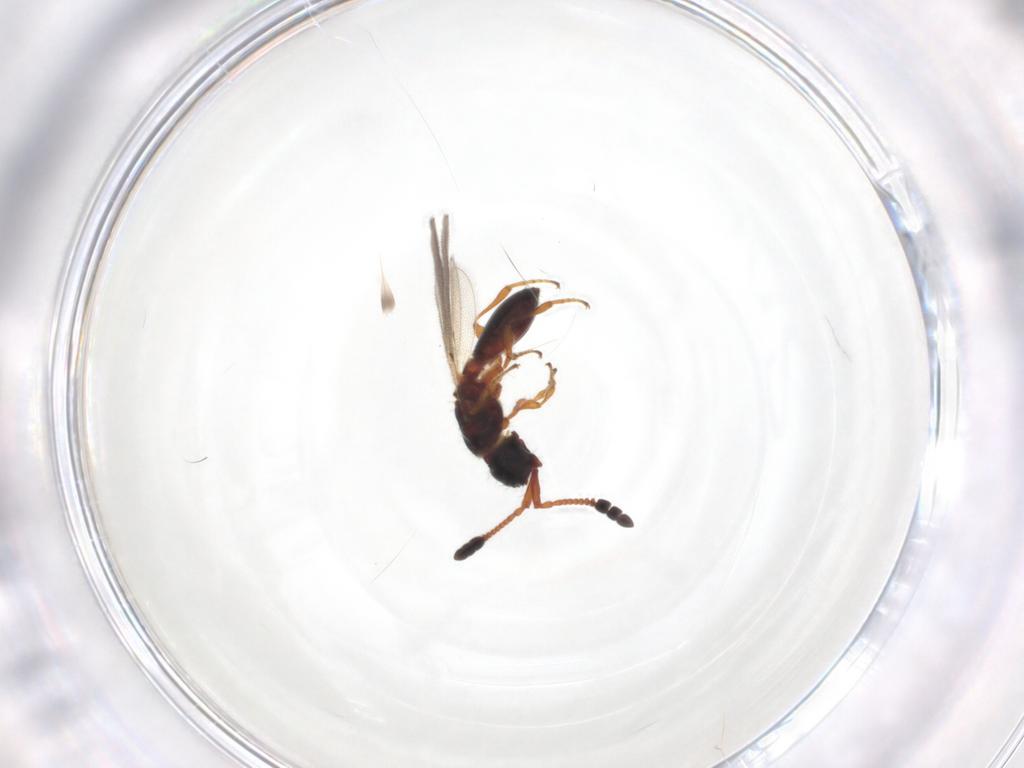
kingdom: Animalia
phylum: Arthropoda
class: Insecta
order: Hymenoptera
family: Diapriidae
